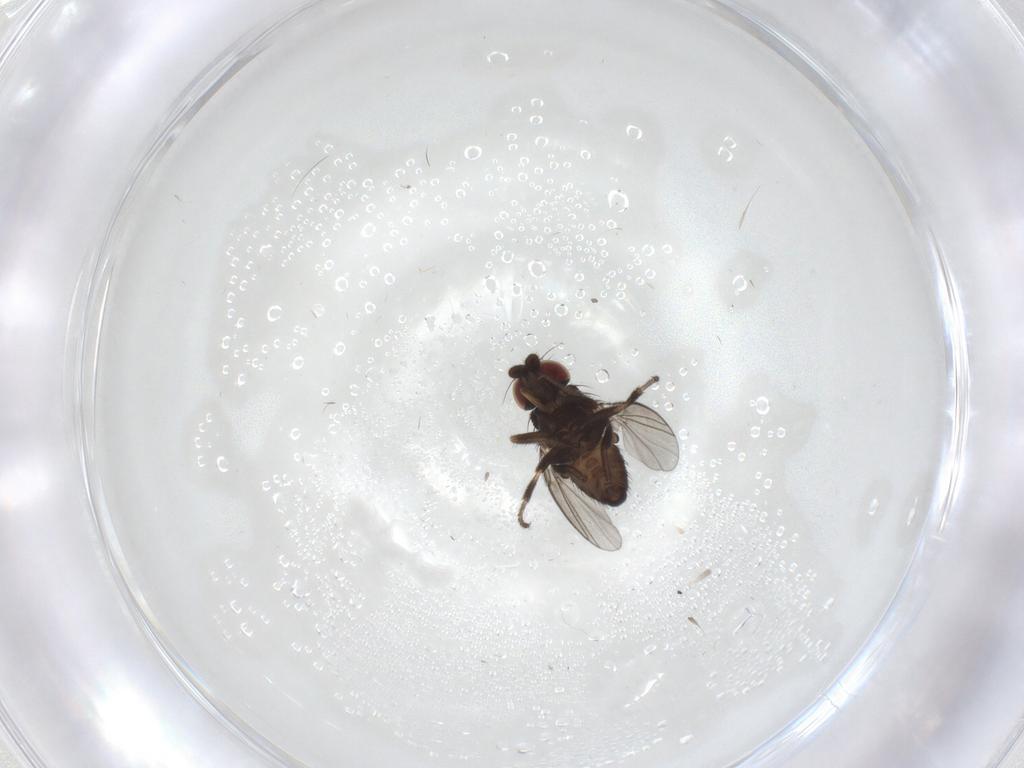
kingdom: Animalia
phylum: Arthropoda
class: Insecta
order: Diptera
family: Milichiidae
